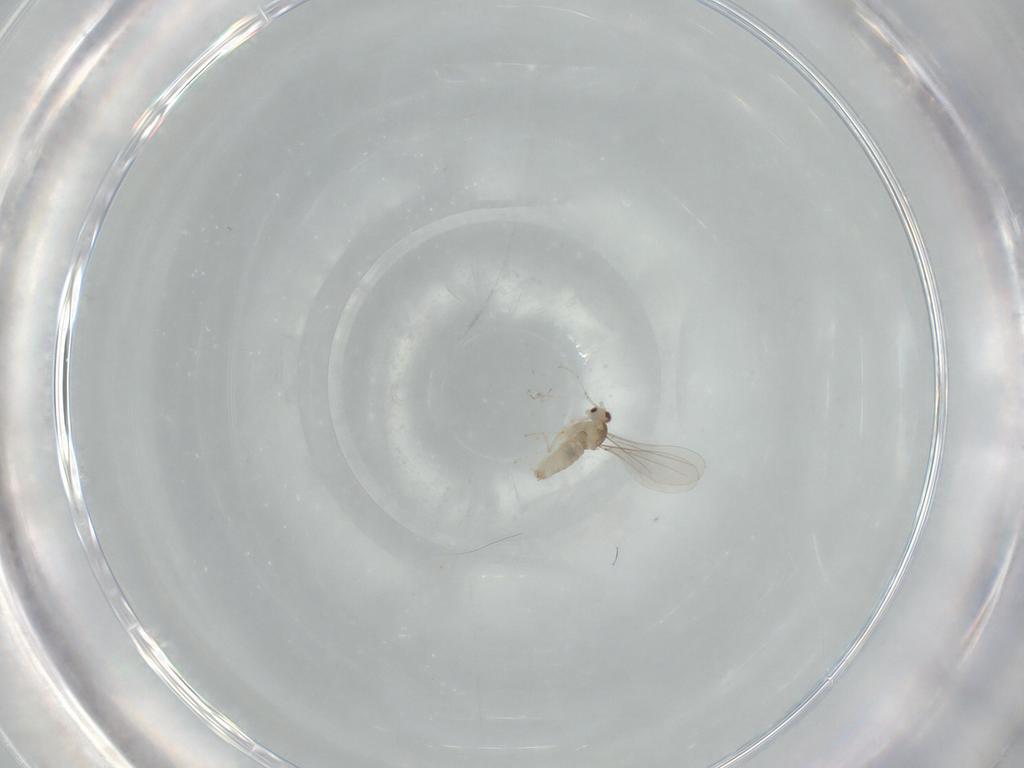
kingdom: Animalia
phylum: Arthropoda
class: Insecta
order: Diptera
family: Cecidomyiidae
